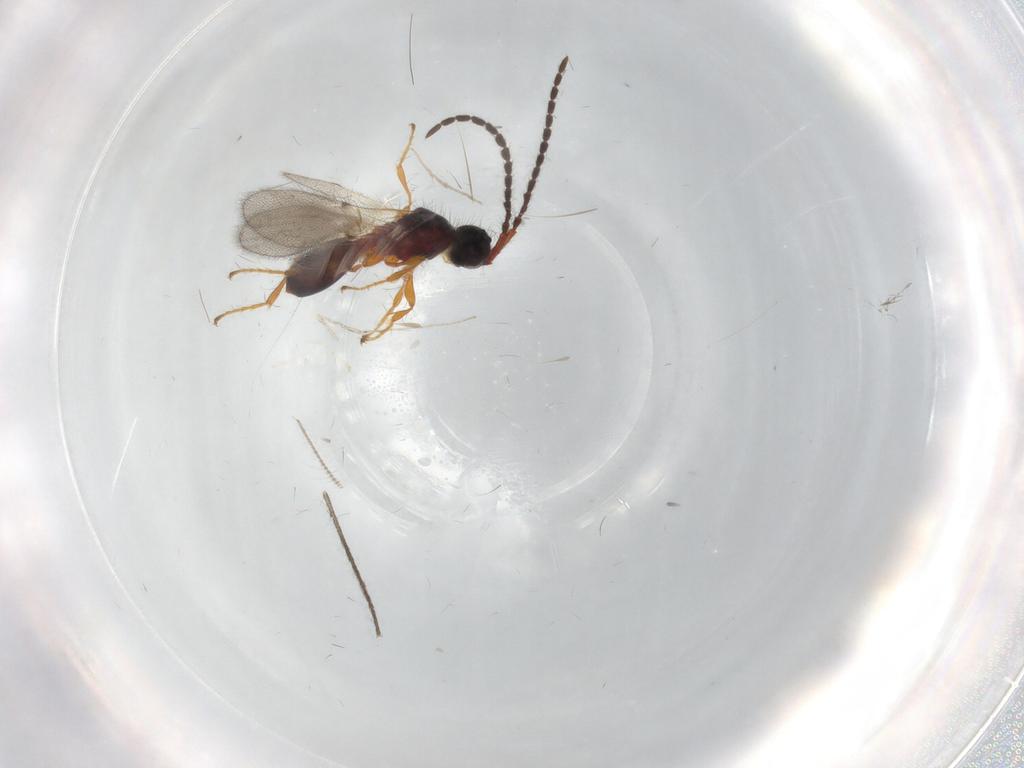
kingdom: Animalia
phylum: Arthropoda
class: Insecta
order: Hymenoptera
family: Diapriidae
